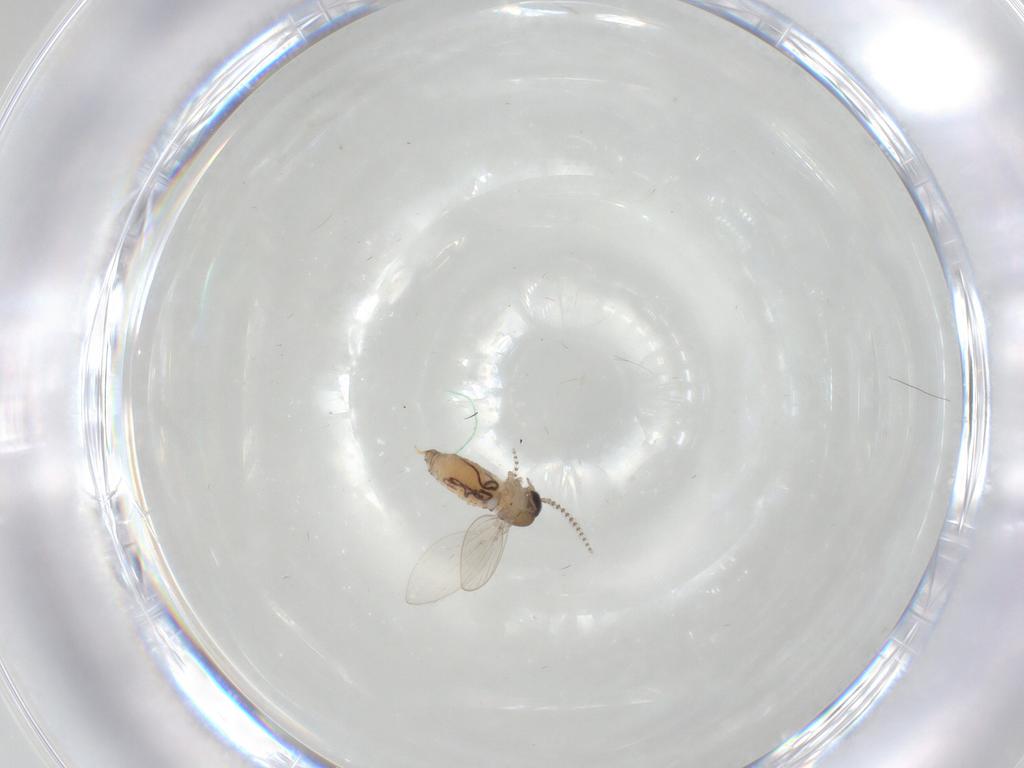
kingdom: Animalia
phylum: Arthropoda
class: Insecta
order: Diptera
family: Psychodidae
